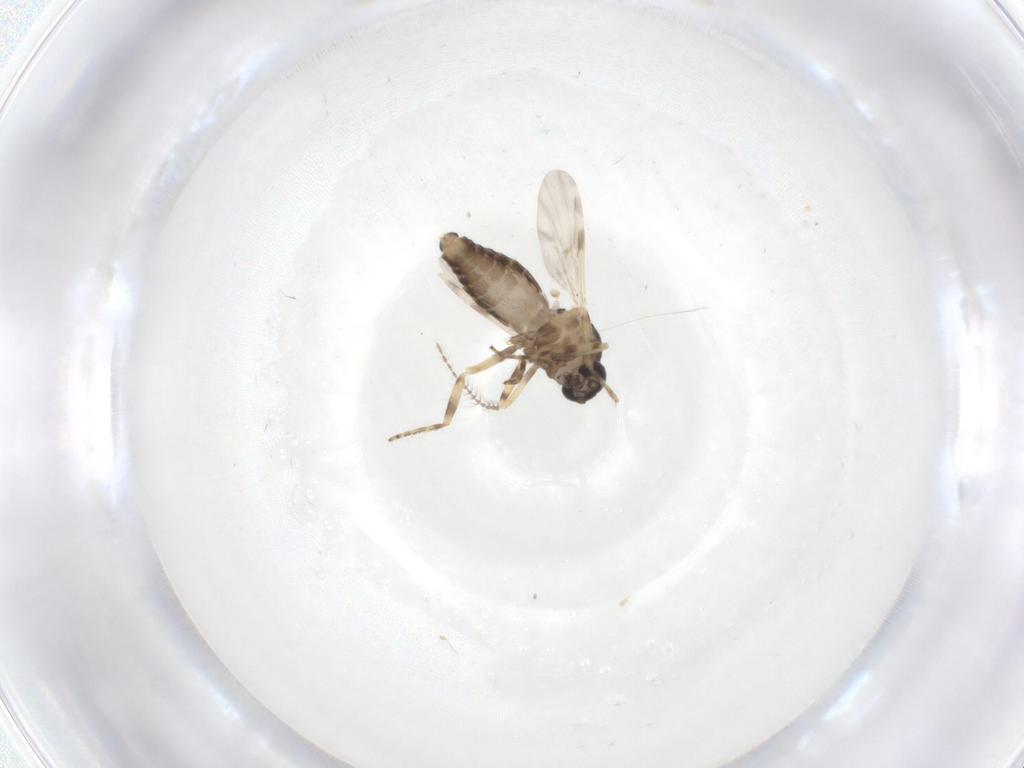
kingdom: Animalia
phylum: Arthropoda
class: Insecta
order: Diptera
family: Ceratopogonidae
